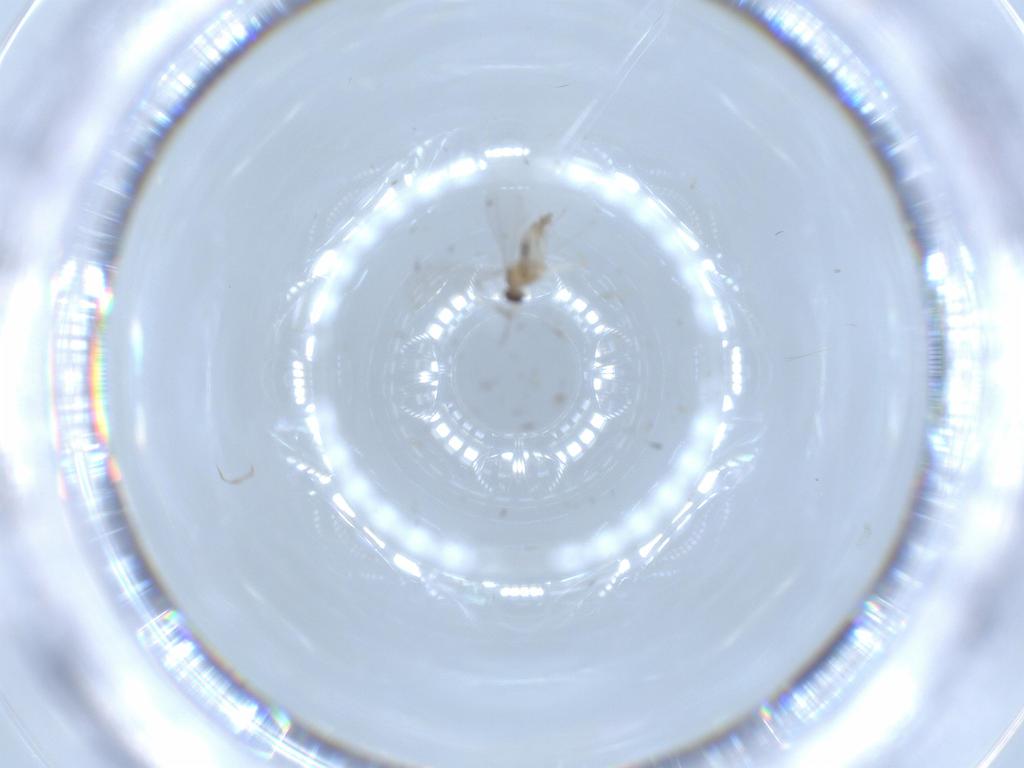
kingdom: Animalia
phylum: Arthropoda
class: Insecta
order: Diptera
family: Cecidomyiidae
